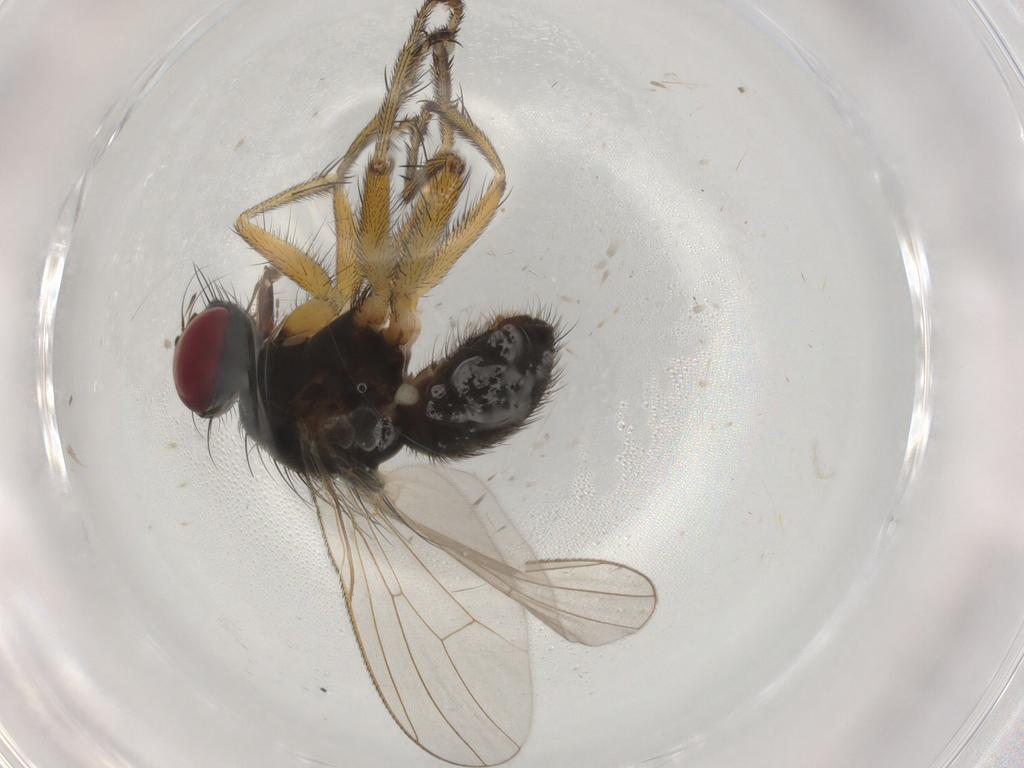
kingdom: Animalia
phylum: Arthropoda
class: Insecta
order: Diptera
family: Muscidae
